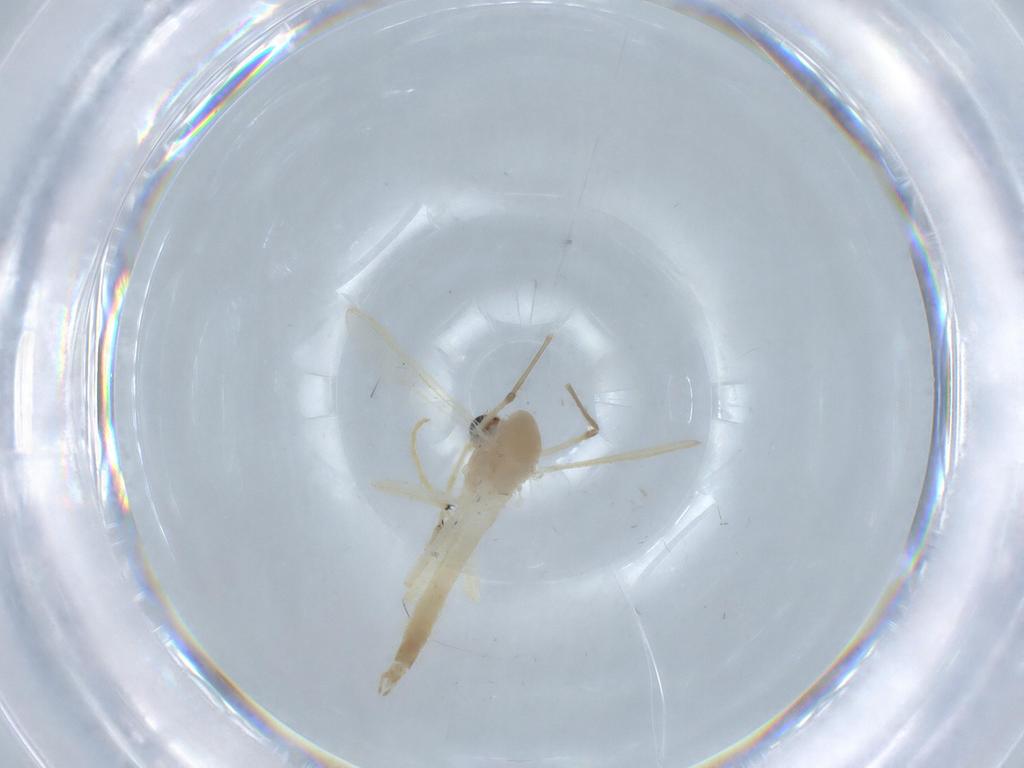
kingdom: Animalia
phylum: Arthropoda
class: Insecta
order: Diptera
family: Chironomidae
